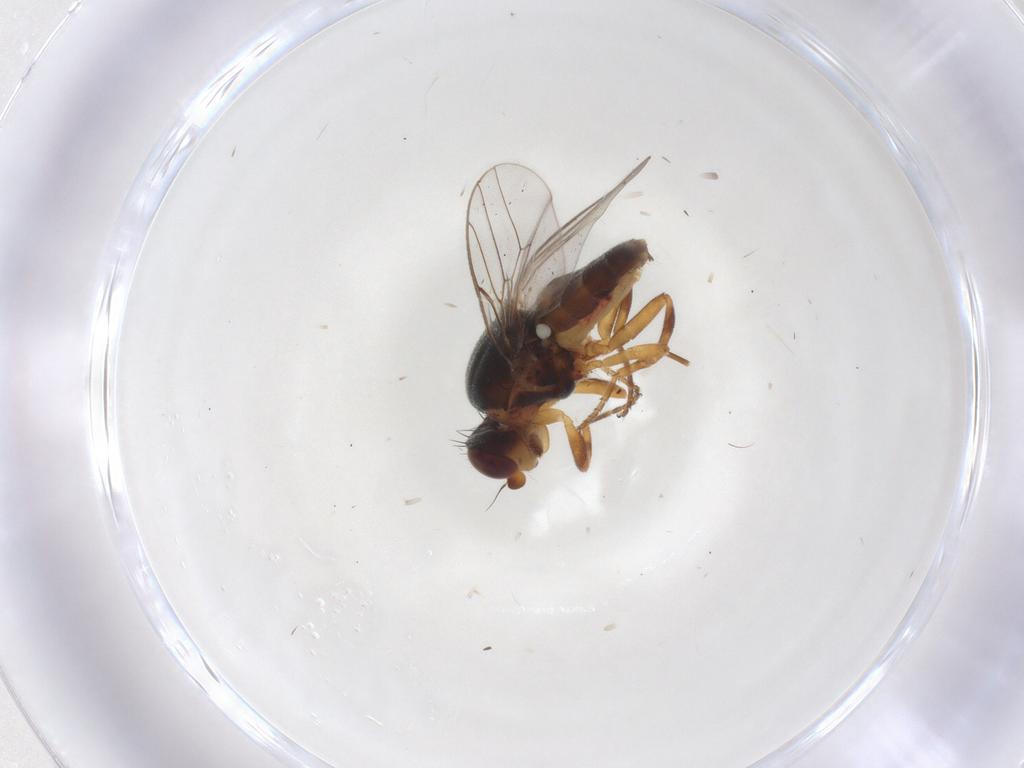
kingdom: Animalia
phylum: Arthropoda
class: Insecta
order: Diptera
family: Chloropidae
